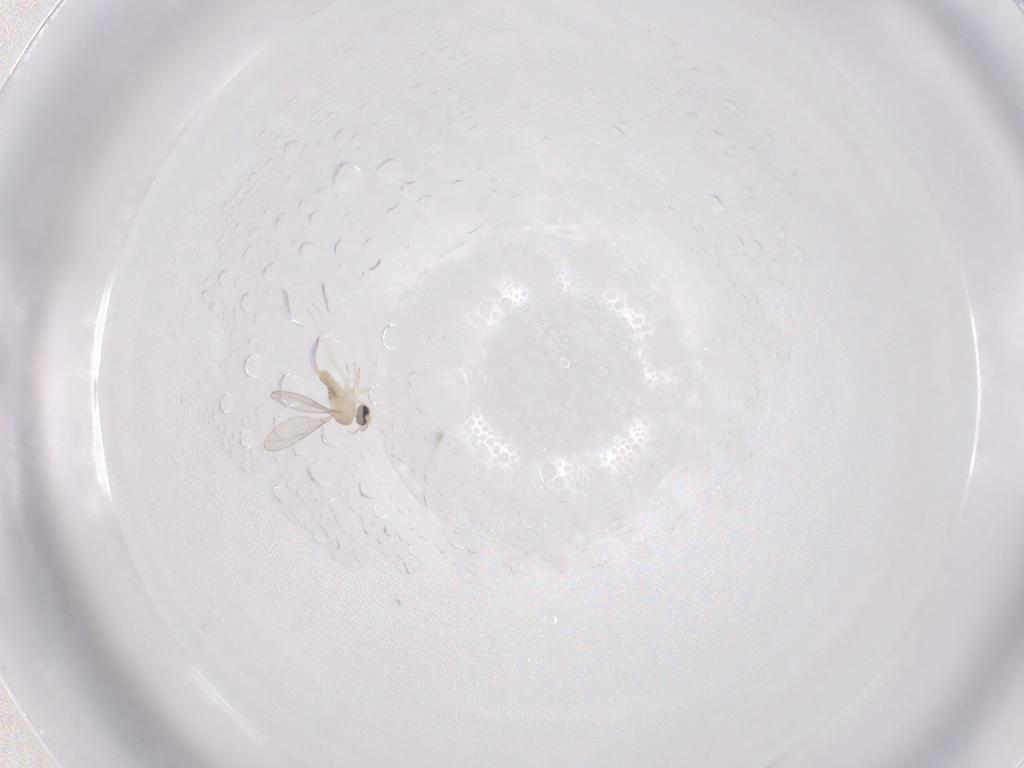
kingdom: Animalia
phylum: Arthropoda
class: Insecta
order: Diptera
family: Cecidomyiidae
